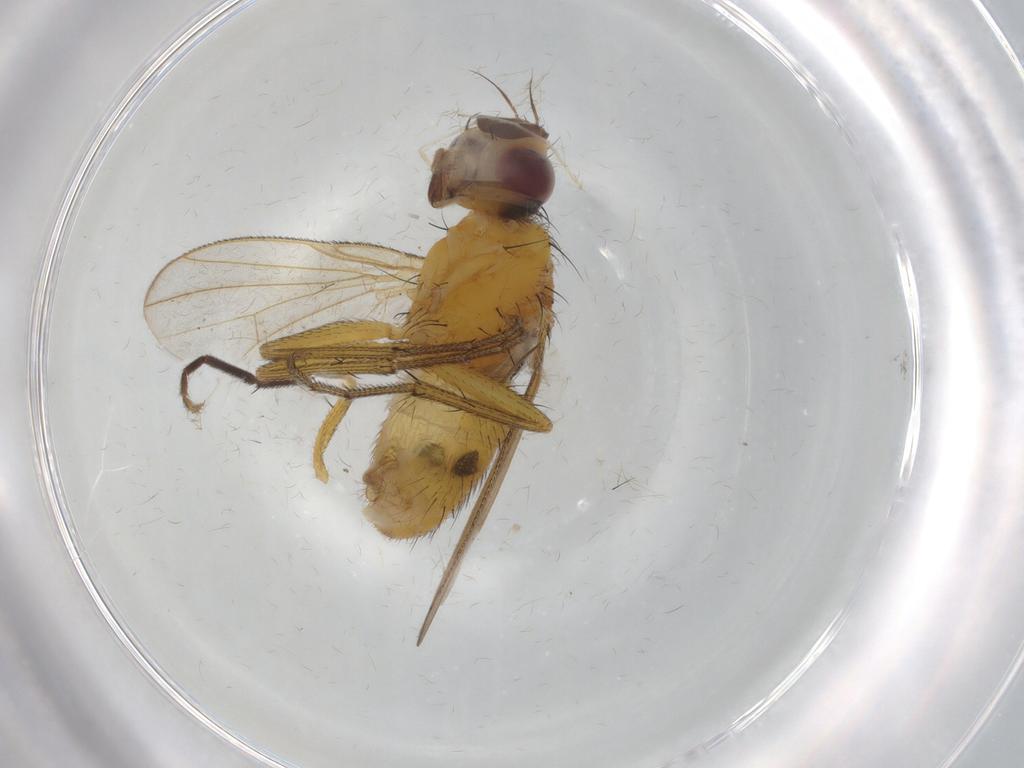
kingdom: Animalia
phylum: Arthropoda
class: Insecta
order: Diptera
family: Muscidae
